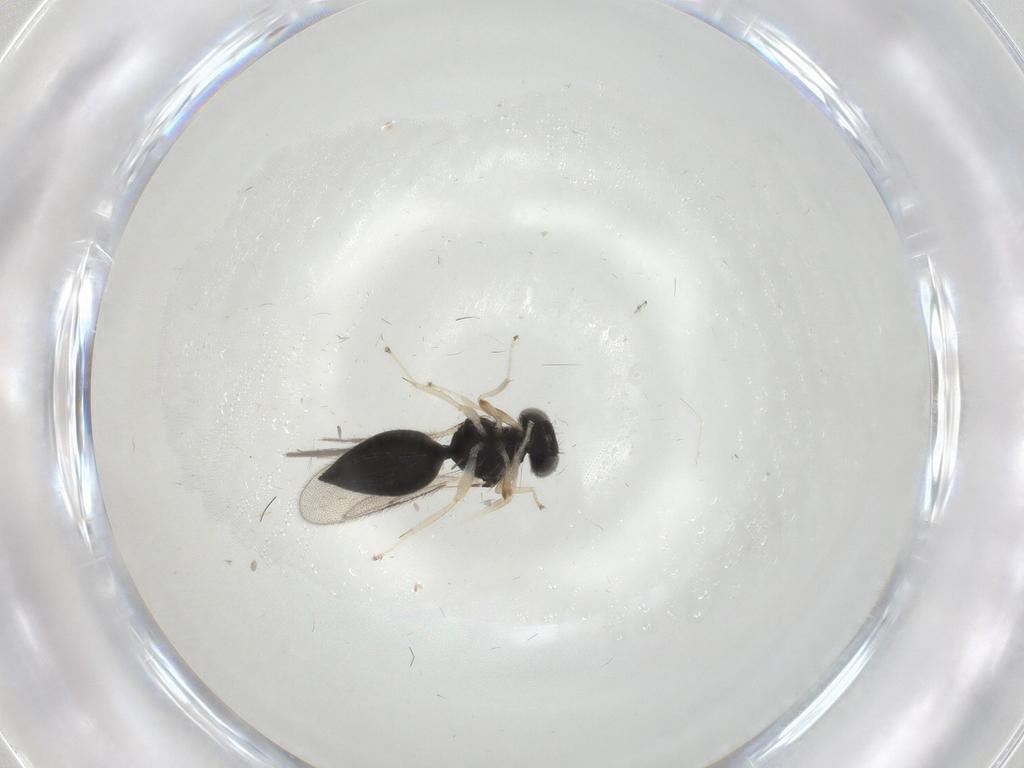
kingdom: Animalia
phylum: Arthropoda
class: Insecta
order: Hymenoptera
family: Eulophidae
